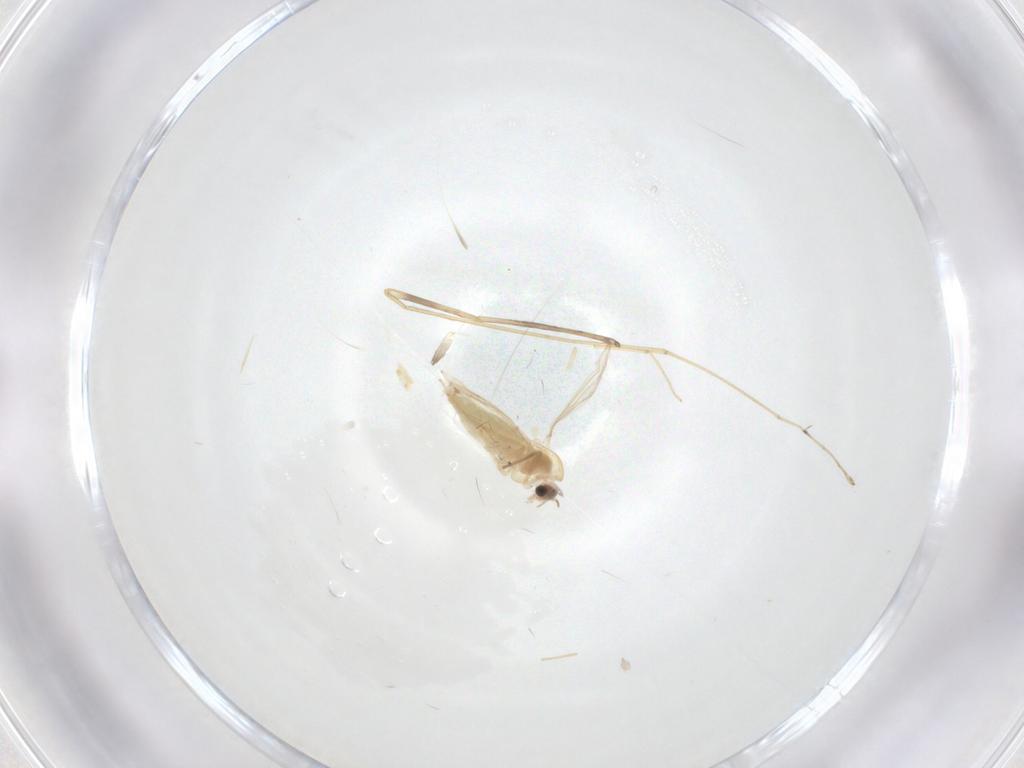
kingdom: Animalia
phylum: Arthropoda
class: Insecta
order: Diptera
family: Chironomidae
